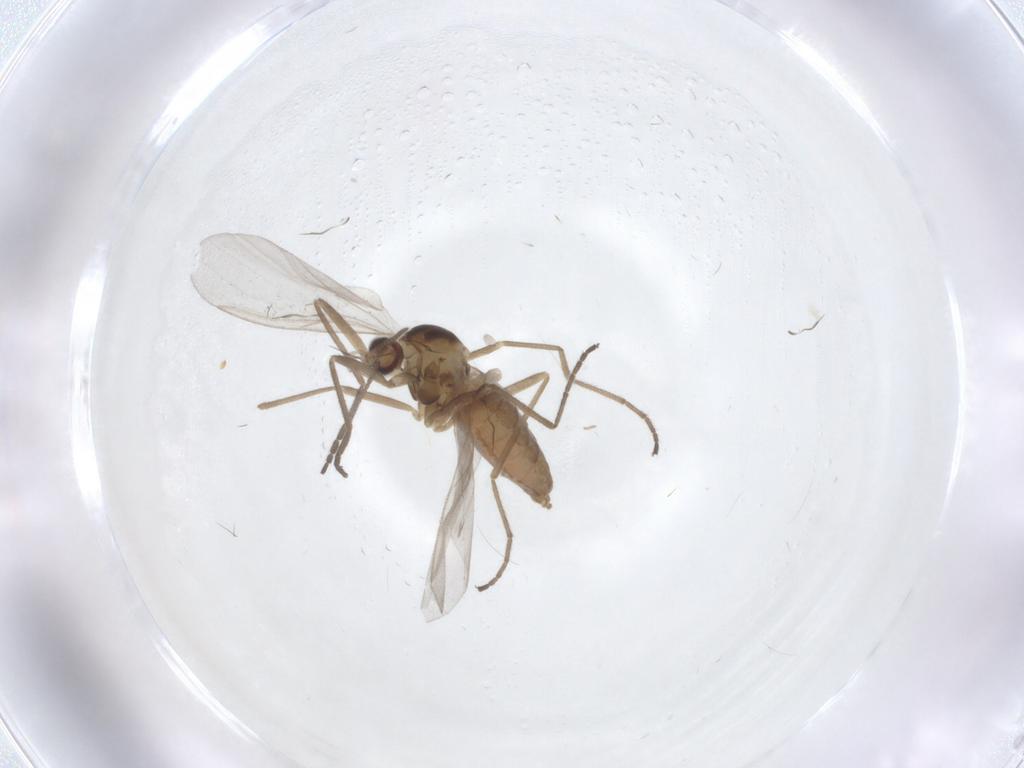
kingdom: Animalia
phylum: Arthropoda
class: Insecta
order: Diptera
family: Cecidomyiidae
